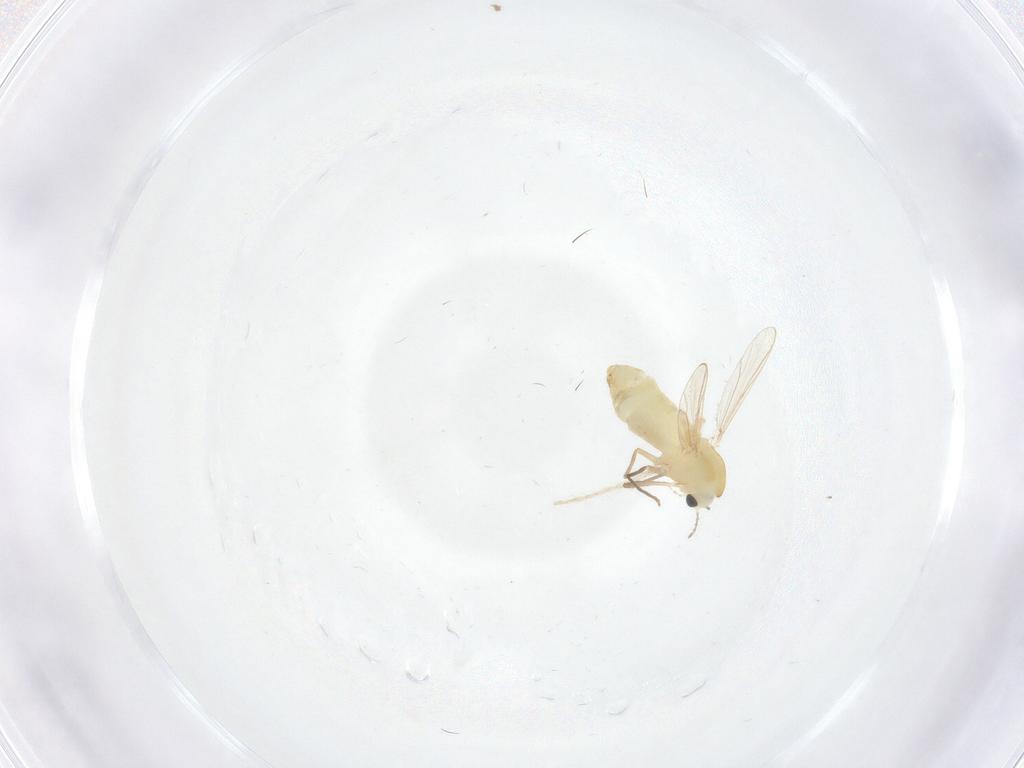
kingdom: Animalia
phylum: Arthropoda
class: Insecta
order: Diptera
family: Chironomidae
